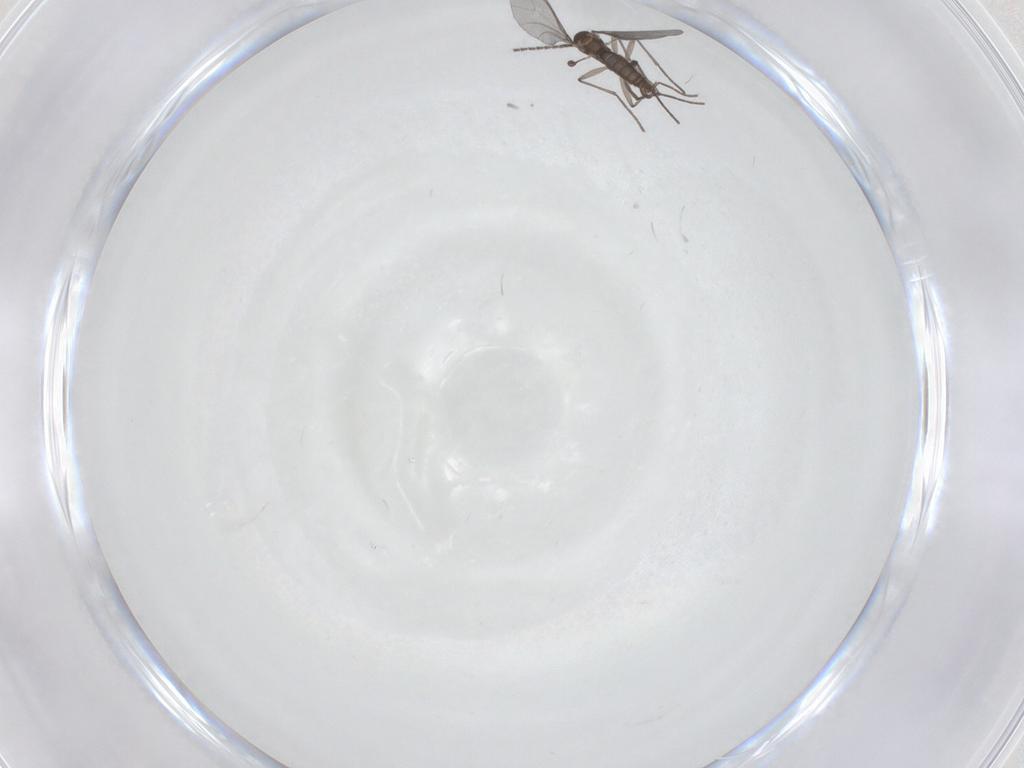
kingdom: Animalia
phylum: Arthropoda
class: Insecta
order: Diptera
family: Sciaridae
